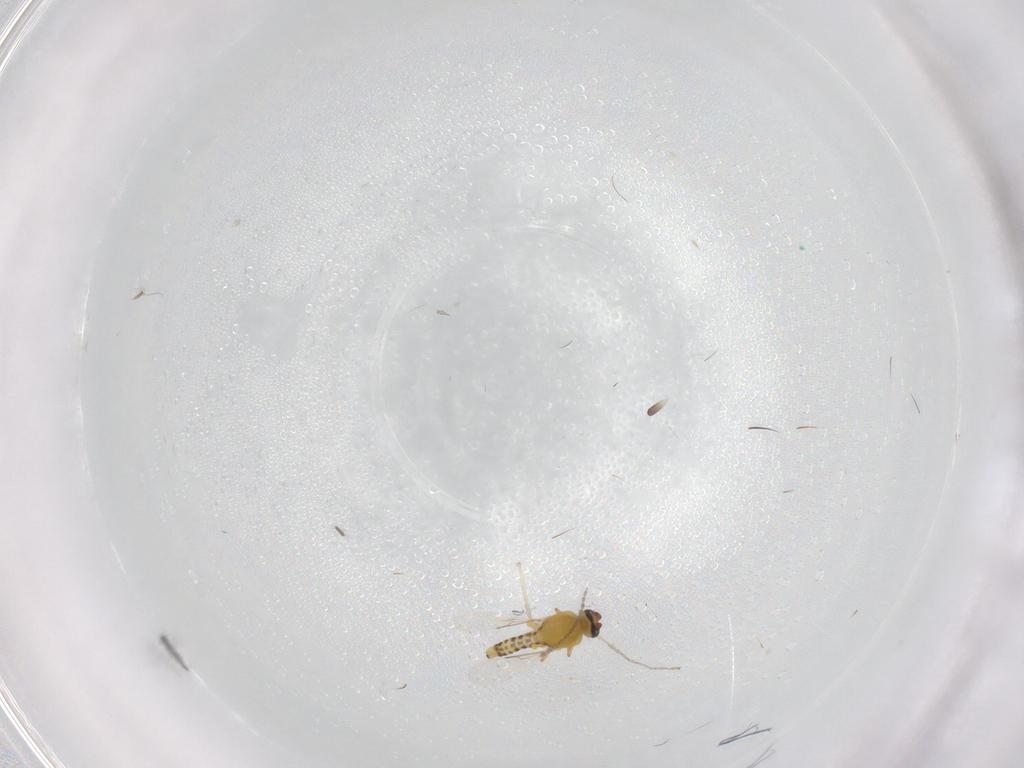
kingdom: Animalia
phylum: Arthropoda
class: Insecta
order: Diptera
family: Ceratopogonidae
